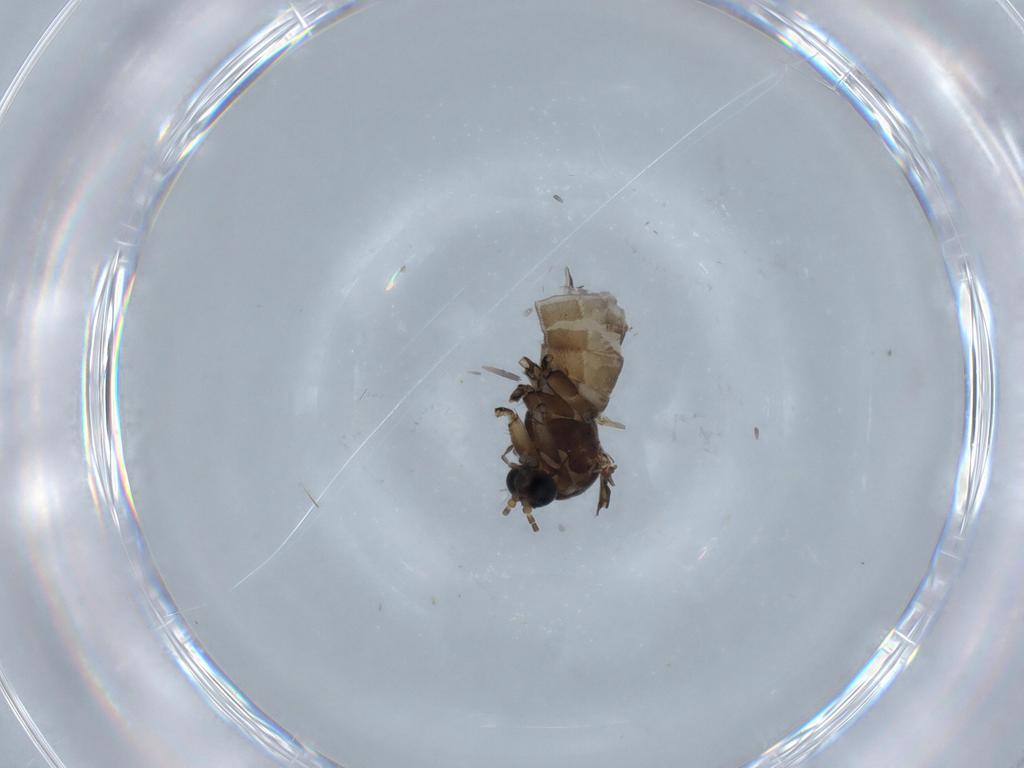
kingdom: Animalia
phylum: Arthropoda
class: Insecta
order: Diptera
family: Sciaridae
